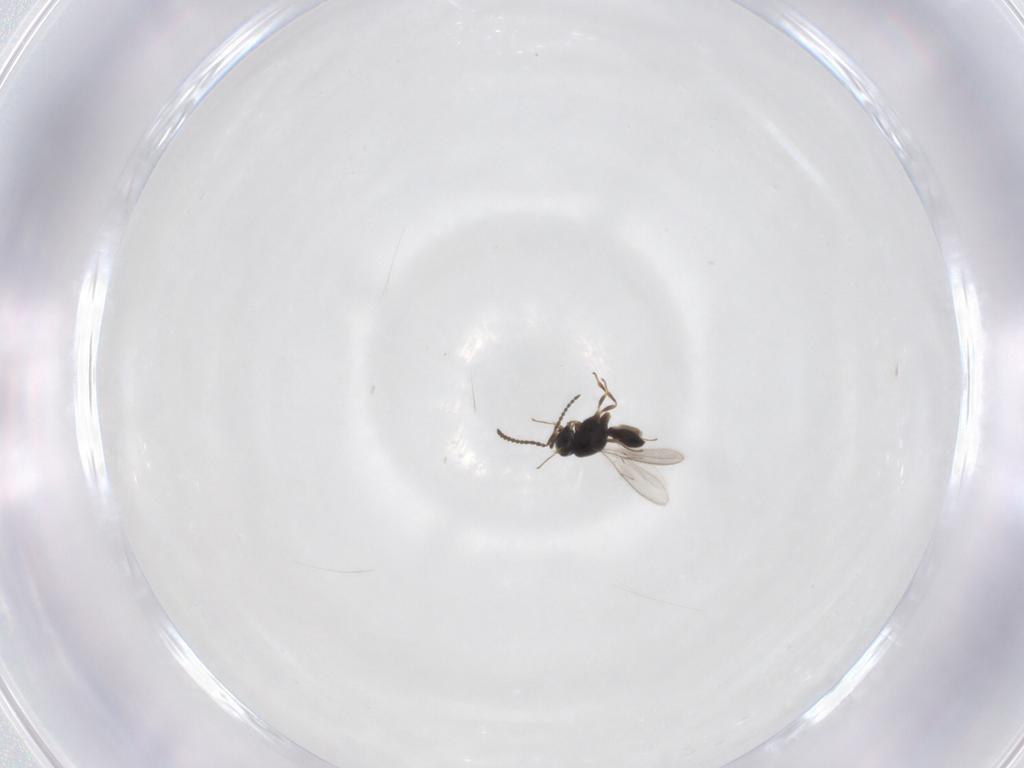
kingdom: Animalia
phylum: Arthropoda
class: Insecta
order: Hymenoptera
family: Scelionidae
